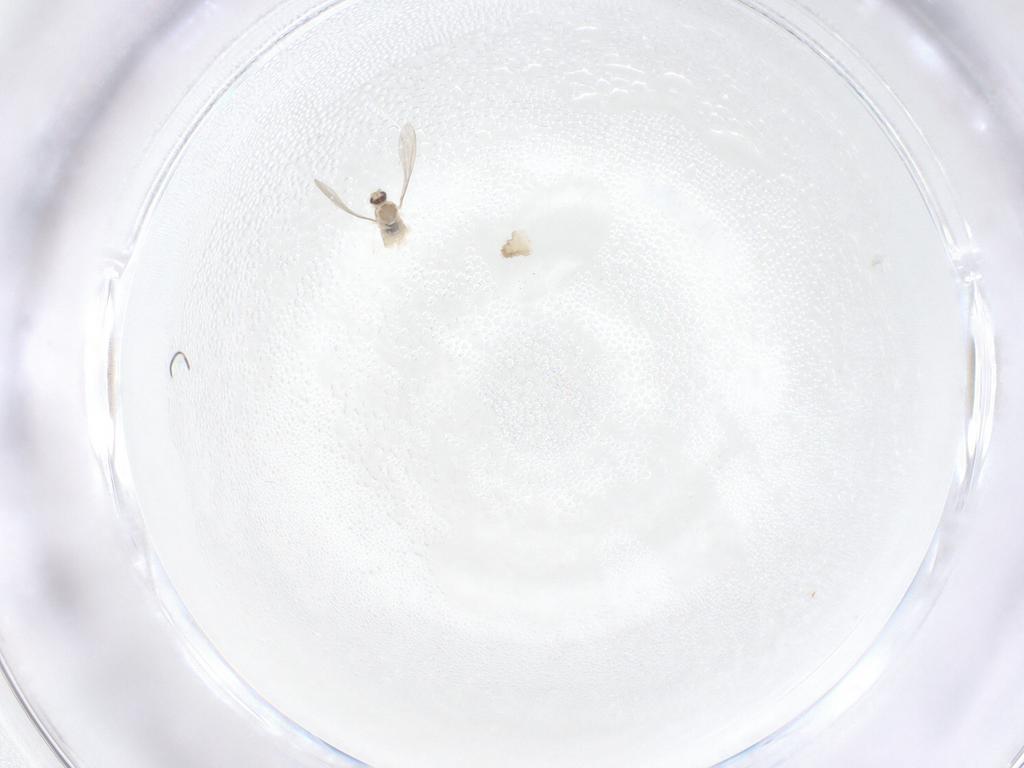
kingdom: Animalia
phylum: Arthropoda
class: Insecta
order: Diptera
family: Cecidomyiidae
